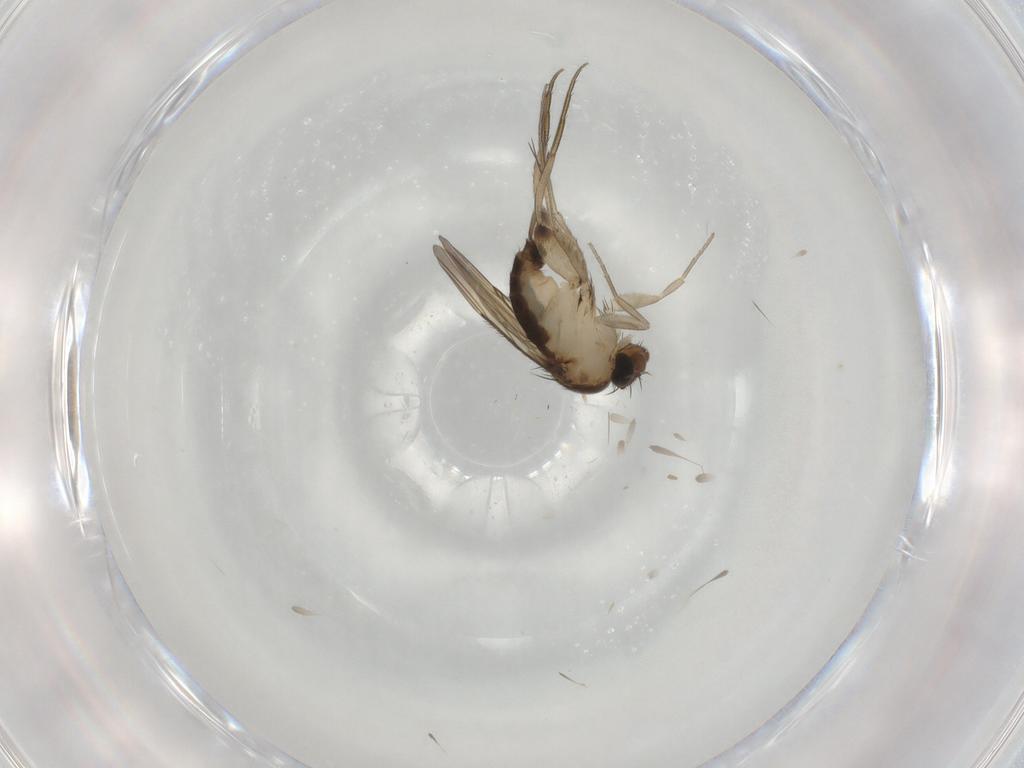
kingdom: Animalia
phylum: Arthropoda
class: Insecta
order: Diptera
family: Phoridae
